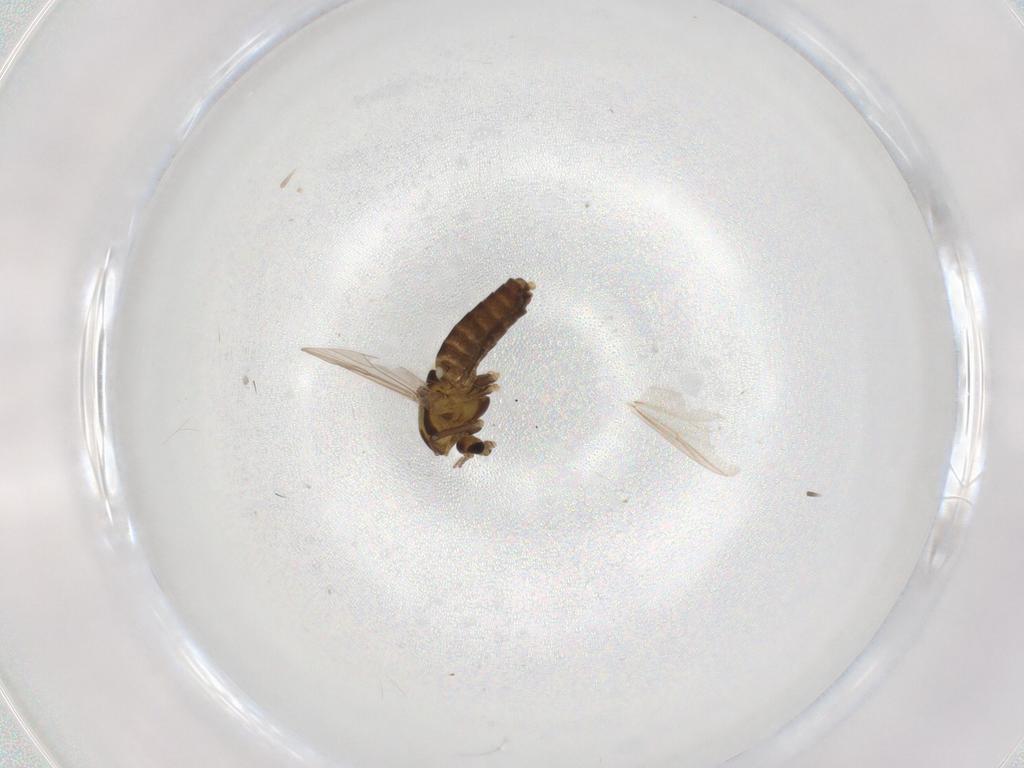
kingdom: Animalia
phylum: Arthropoda
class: Insecta
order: Diptera
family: Chironomidae
